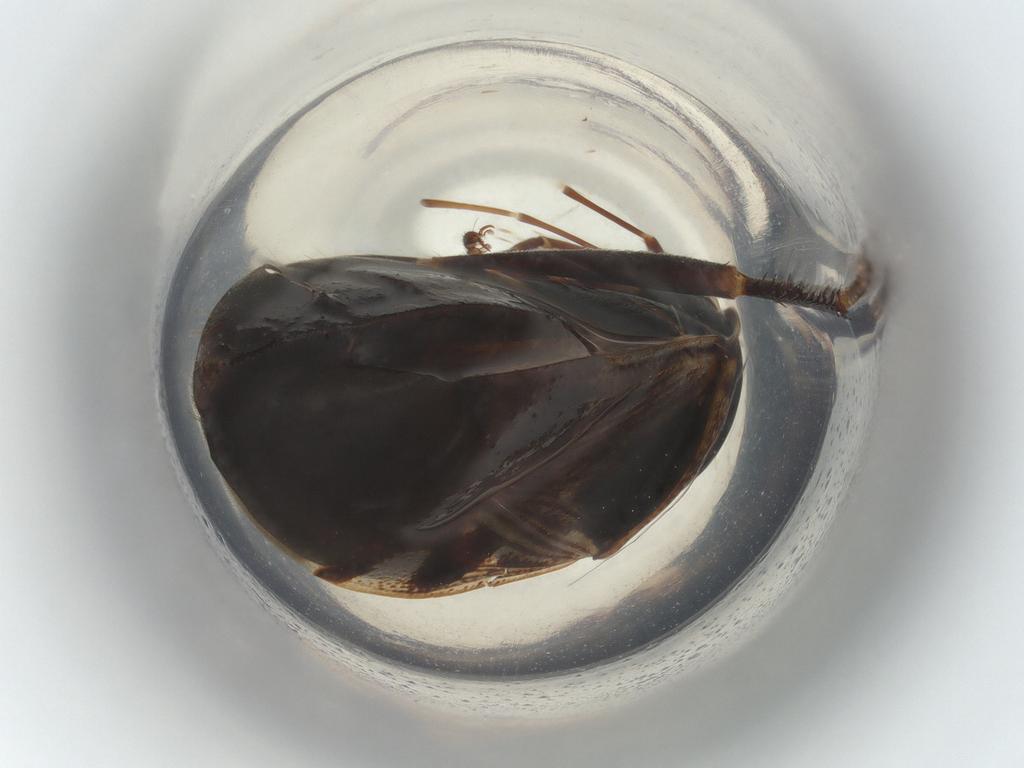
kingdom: Animalia
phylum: Arthropoda
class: Insecta
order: Hemiptera
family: Rhyparochromidae
